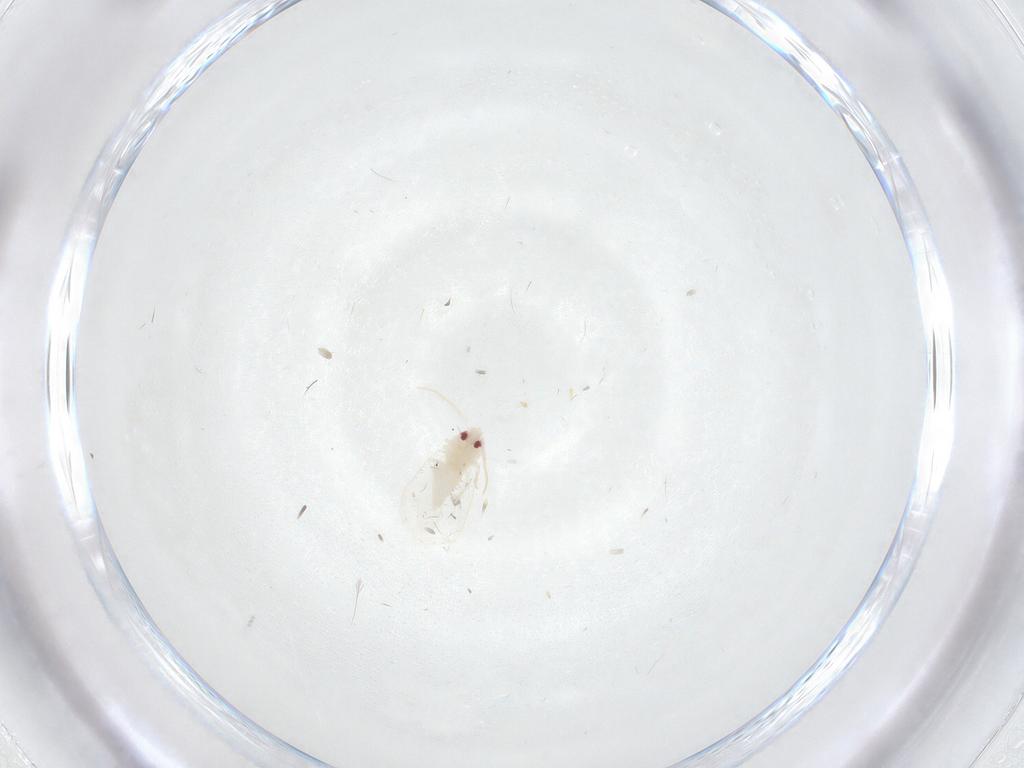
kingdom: Animalia
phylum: Arthropoda
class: Insecta
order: Hemiptera
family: Aleyrodidae
